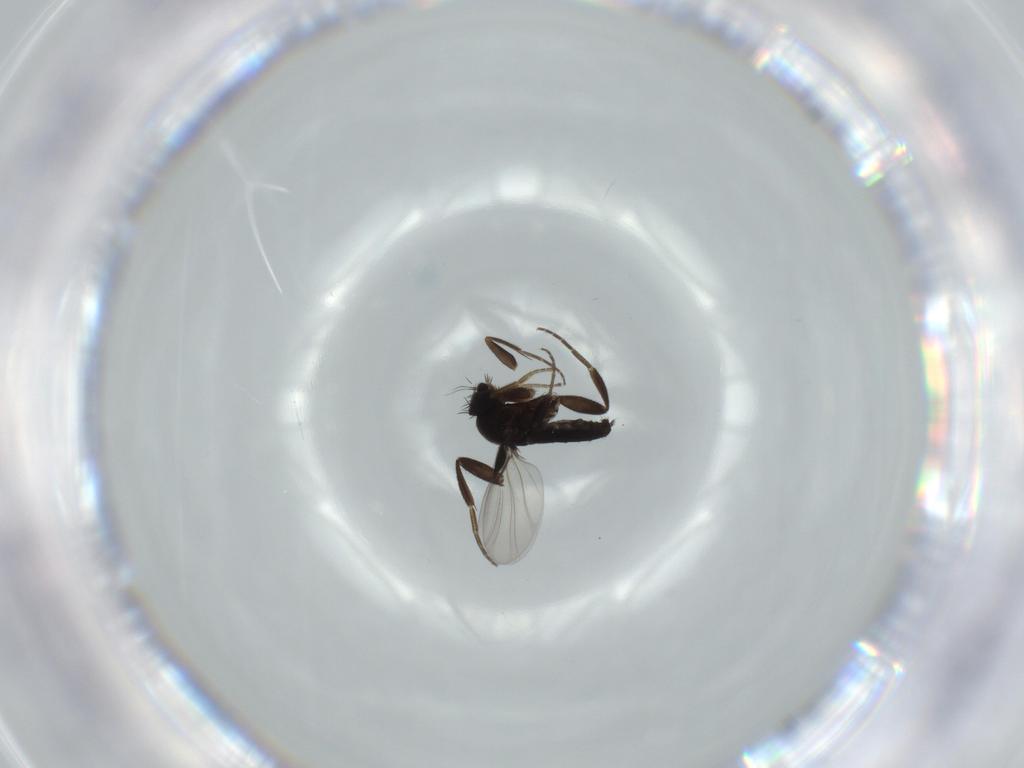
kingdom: Animalia
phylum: Arthropoda
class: Insecta
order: Diptera
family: Phoridae
